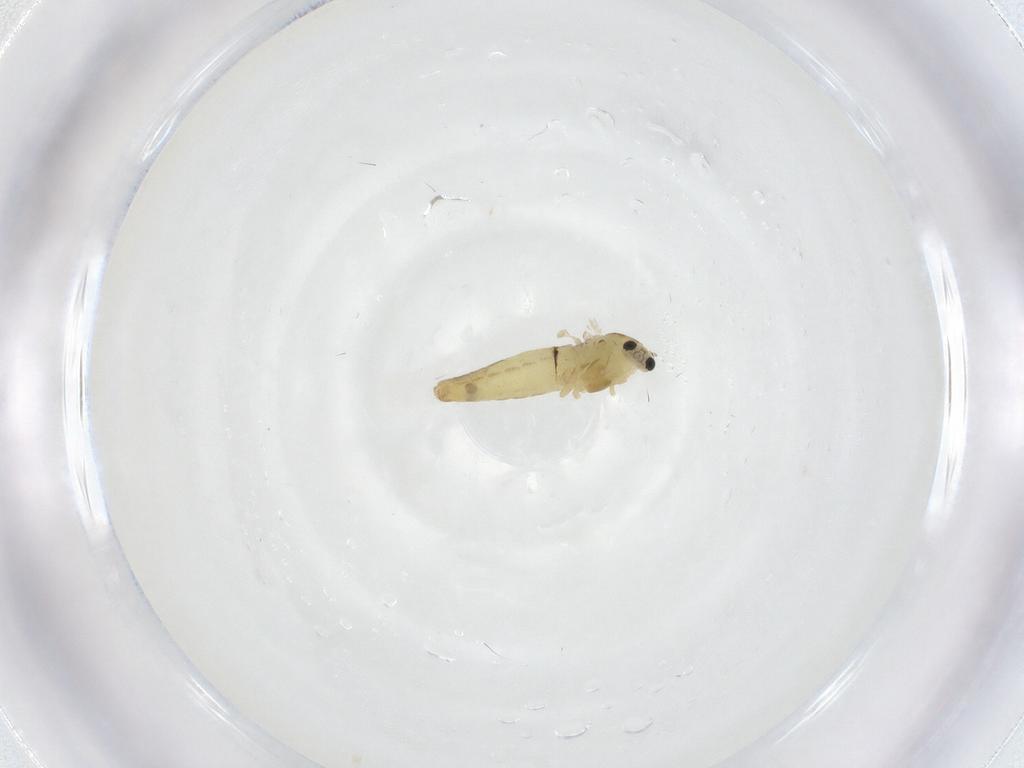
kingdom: Animalia
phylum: Arthropoda
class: Insecta
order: Diptera
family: Chironomidae
